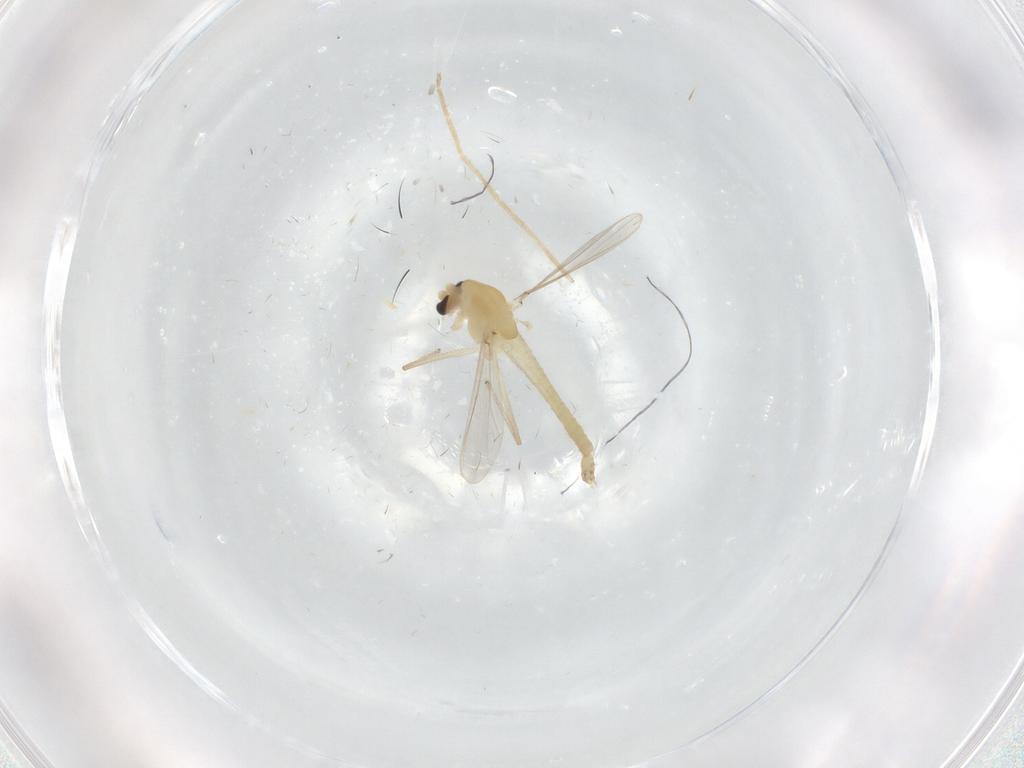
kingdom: Animalia
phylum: Arthropoda
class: Insecta
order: Diptera
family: Chironomidae
